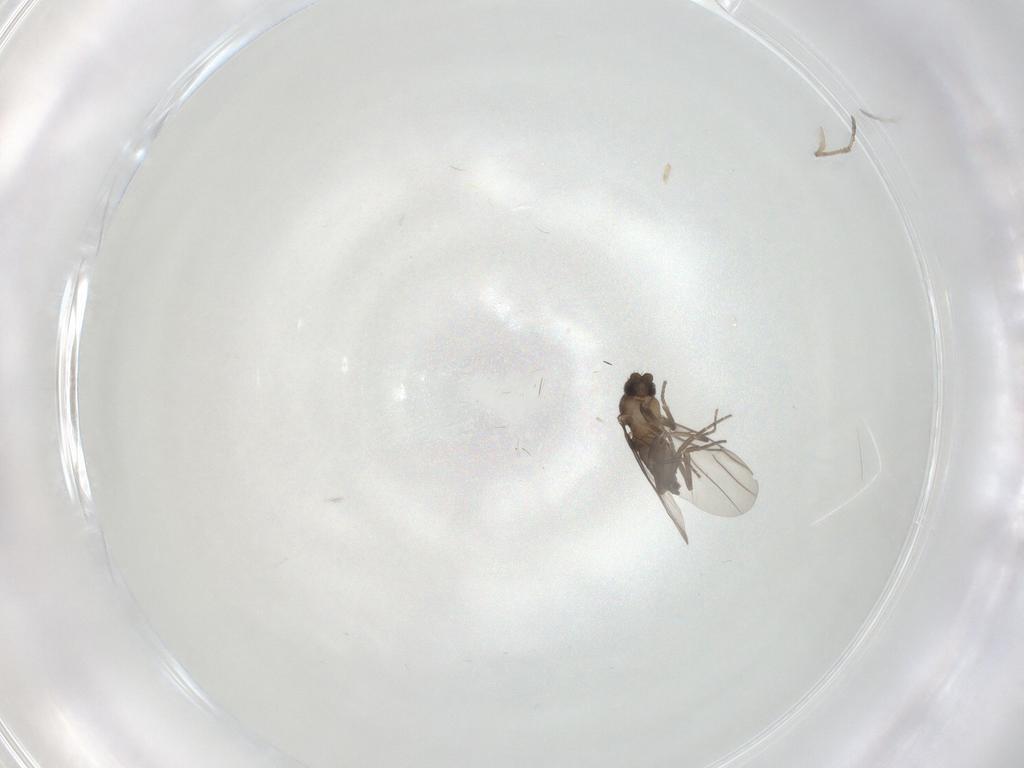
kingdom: Animalia
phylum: Arthropoda
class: Insecta
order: Diptera
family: Phoridae
